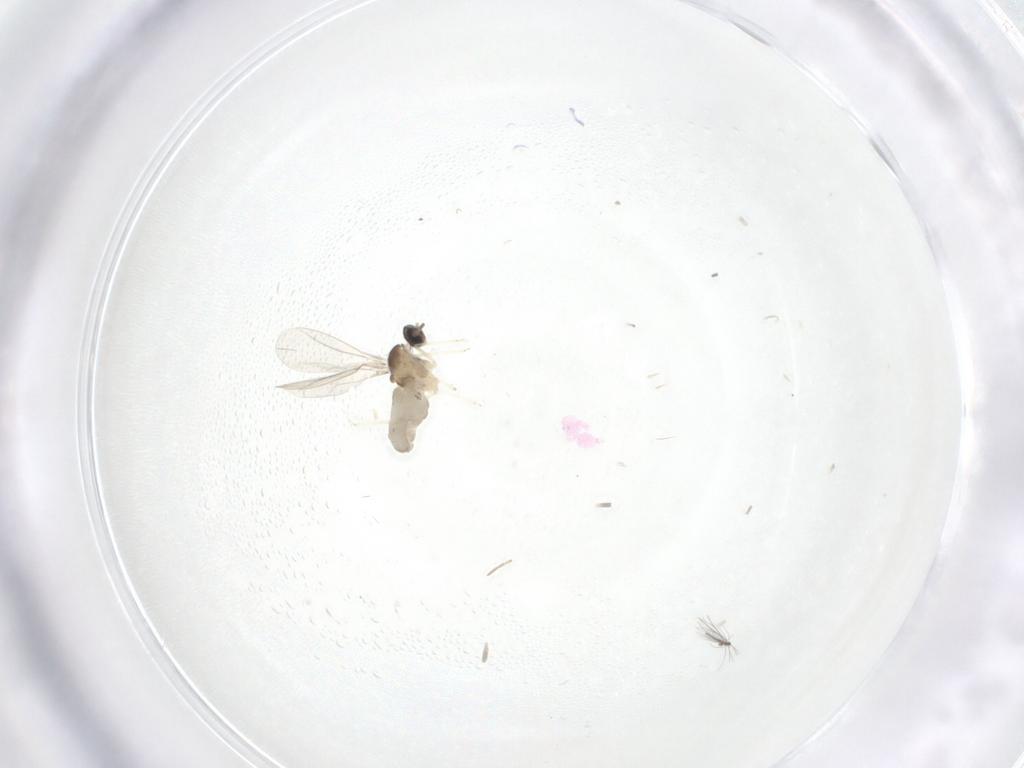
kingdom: Animalia
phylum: Arthropoda
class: Insecta
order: Diptera
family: Cecidomyiidae
